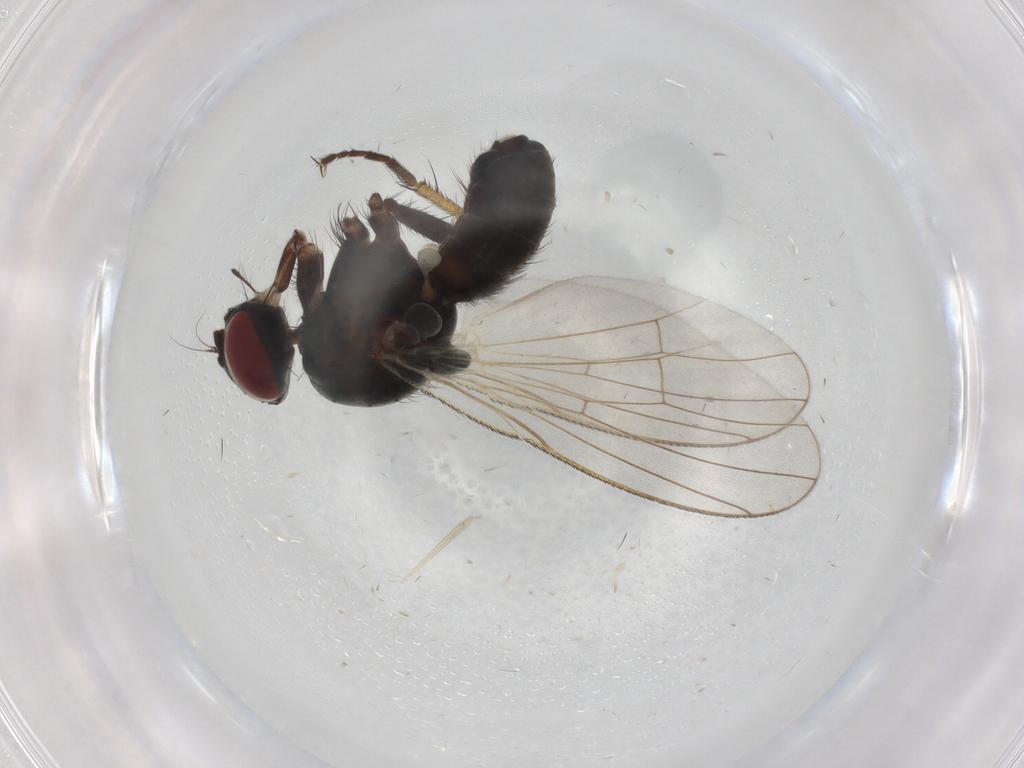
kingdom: Animalia
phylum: Arthropoda
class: Insecta
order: Diptera
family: Muscidae
